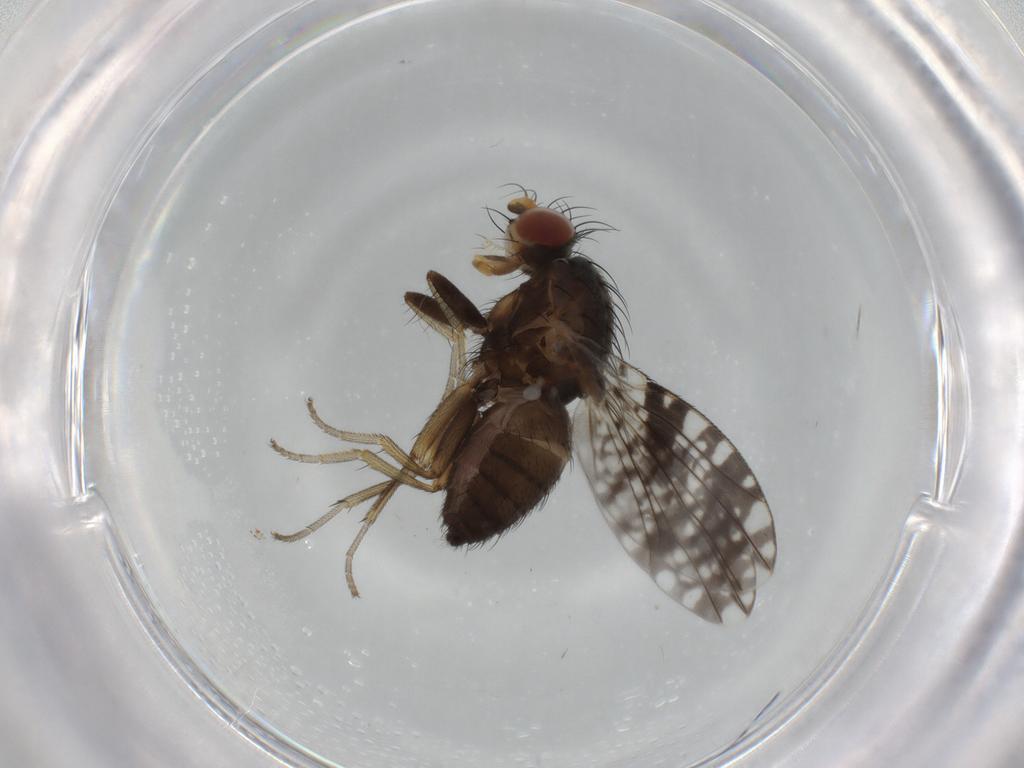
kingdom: Animalia
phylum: Arthropoda
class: Insecta
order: Diptera
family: Tephritidae
